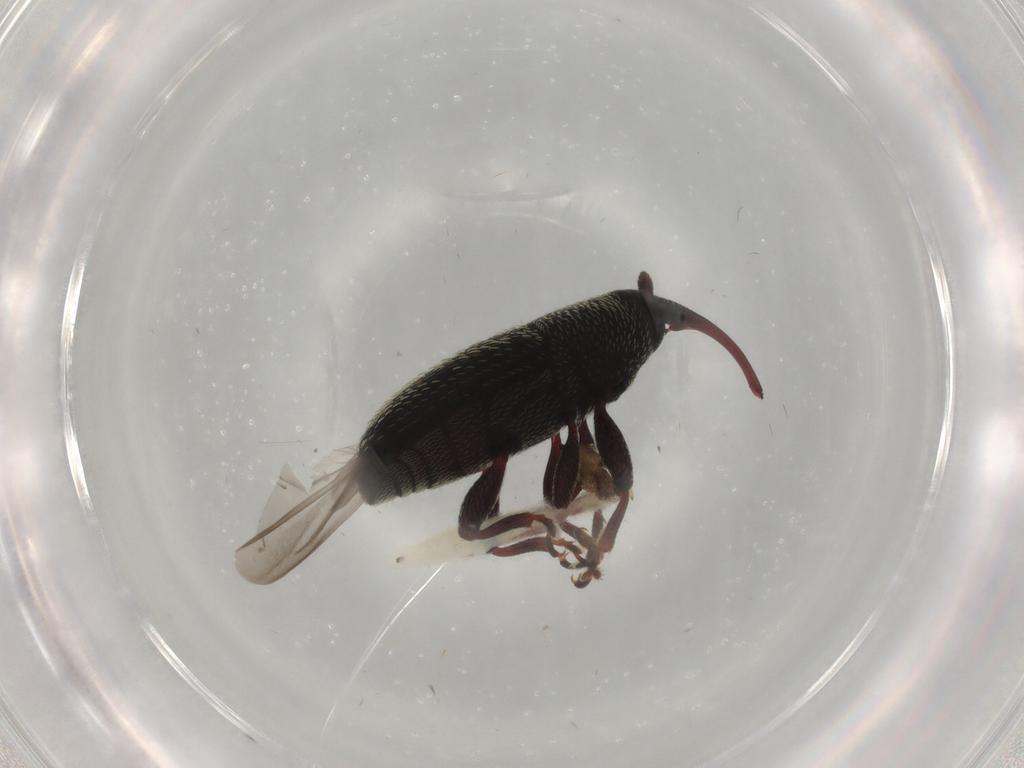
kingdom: Animalia
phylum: Arthropoda
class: Insecta
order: Coleoptera
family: Curculionidae
